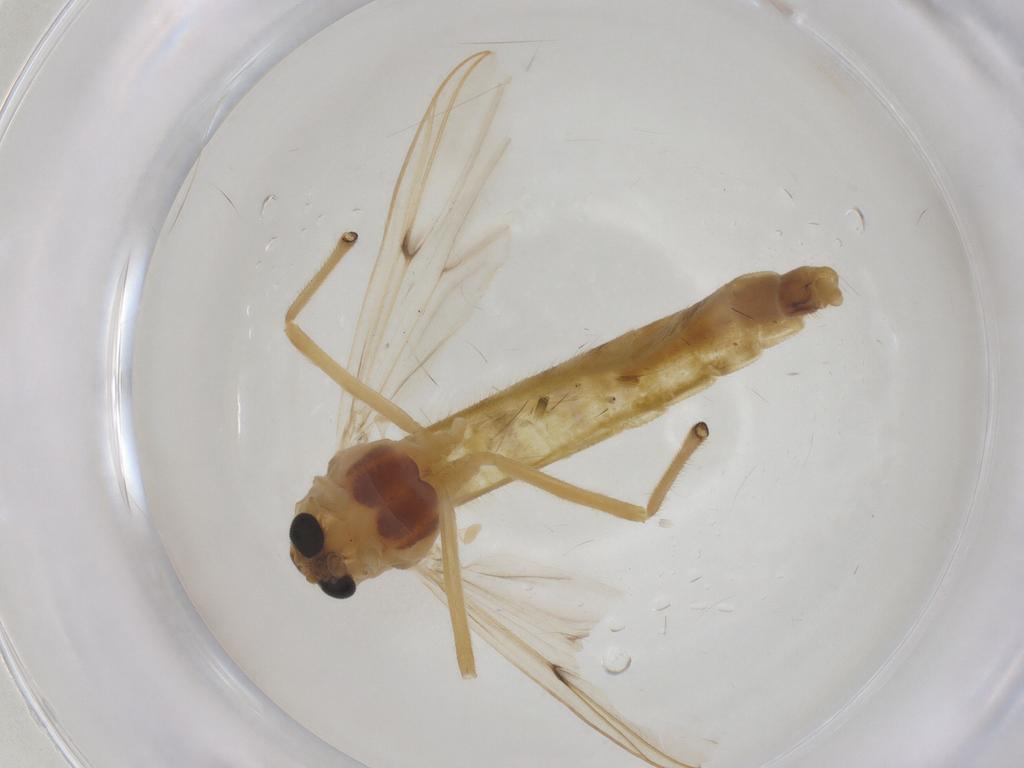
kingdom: Animalia
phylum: Arthropoda
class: Insecta
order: Diptera
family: Chironomidae
